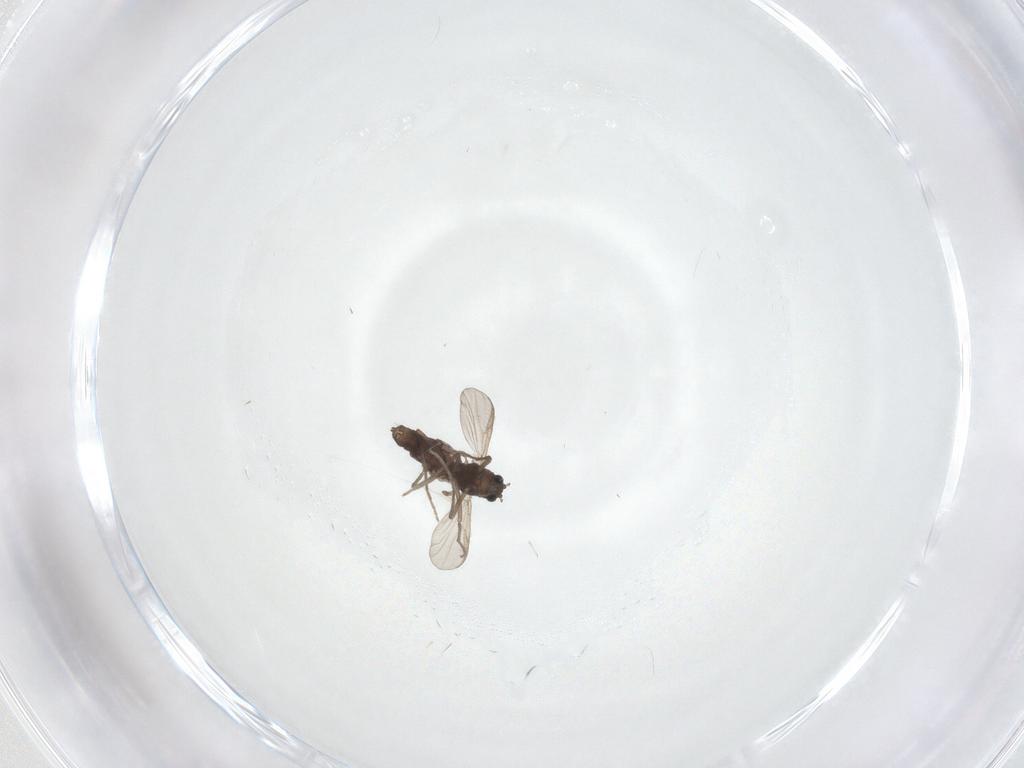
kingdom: Animalia
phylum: Arthropoda
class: Insecta
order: Diptera
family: Chironomidae
